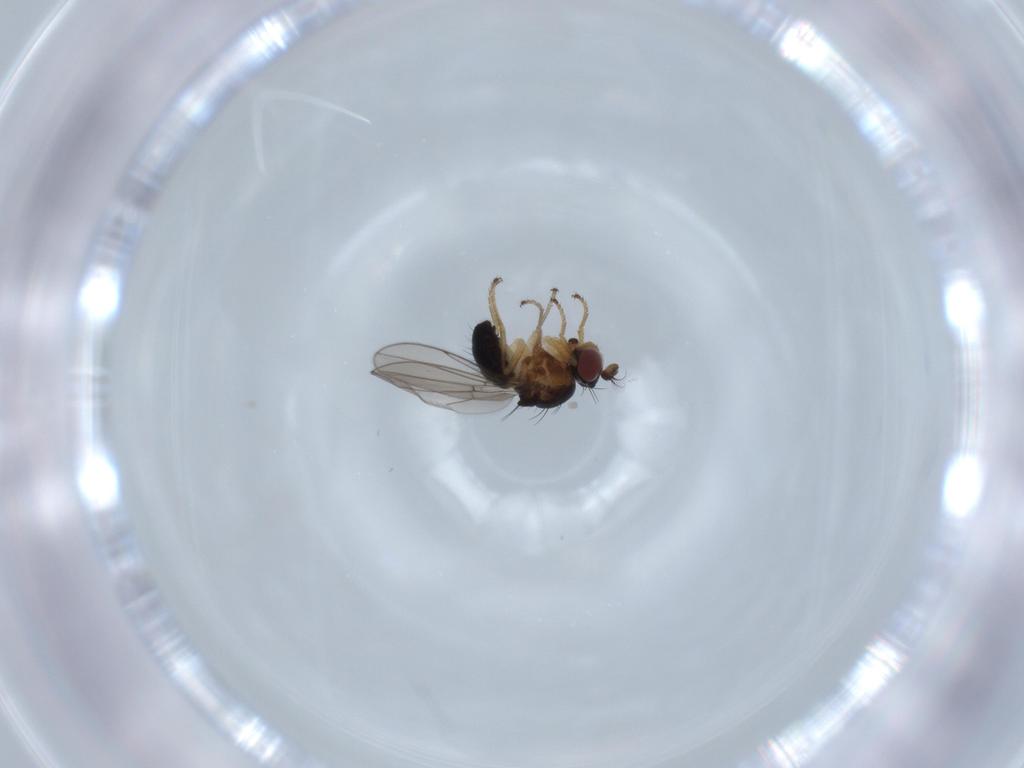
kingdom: Animalia
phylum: Arthropoda
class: Insecta
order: Diptera
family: Ephydridae
